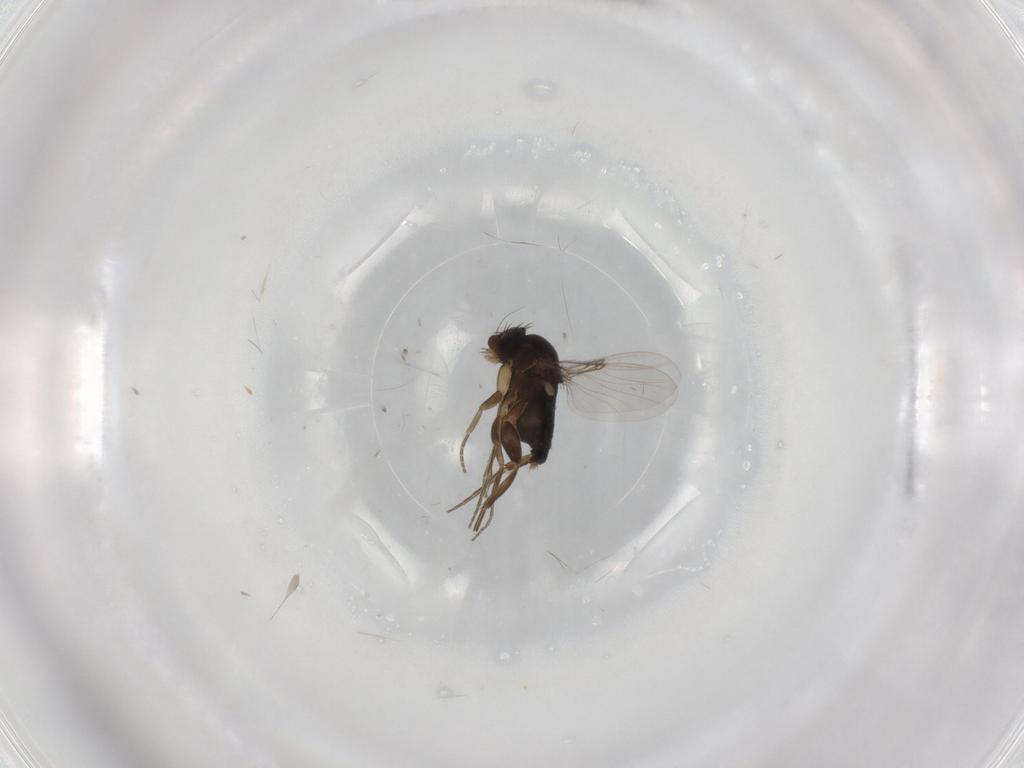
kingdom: Animalia
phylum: Arthropoda
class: Insecta
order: Diptera
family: Phoridae
